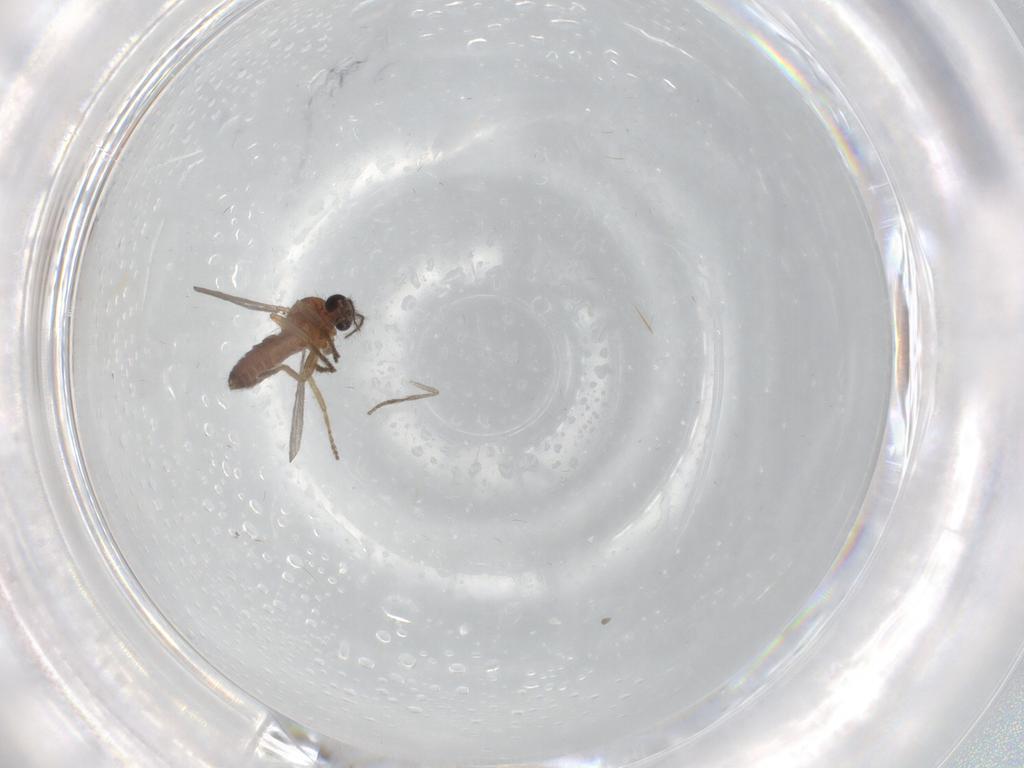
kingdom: Animalia
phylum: Arthropoda
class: Insecta
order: Diptera
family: Ceratopogonidae
